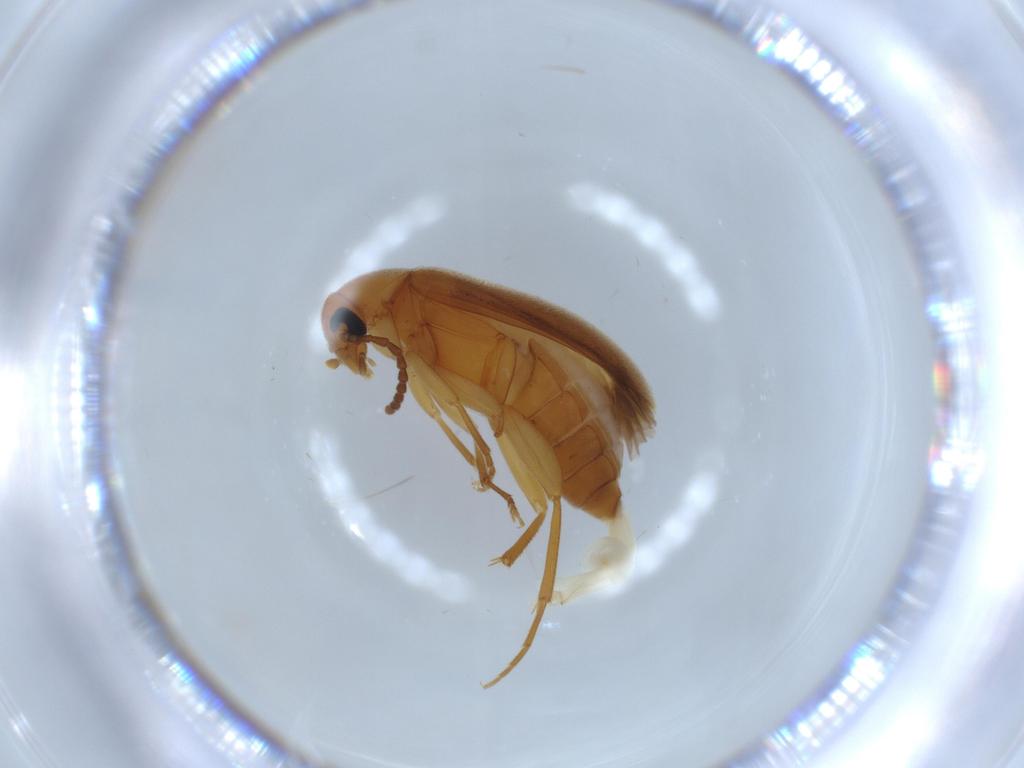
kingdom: Animalia
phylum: Arthropoda
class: Insecta
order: Coleoptera
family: Scraptiidae
